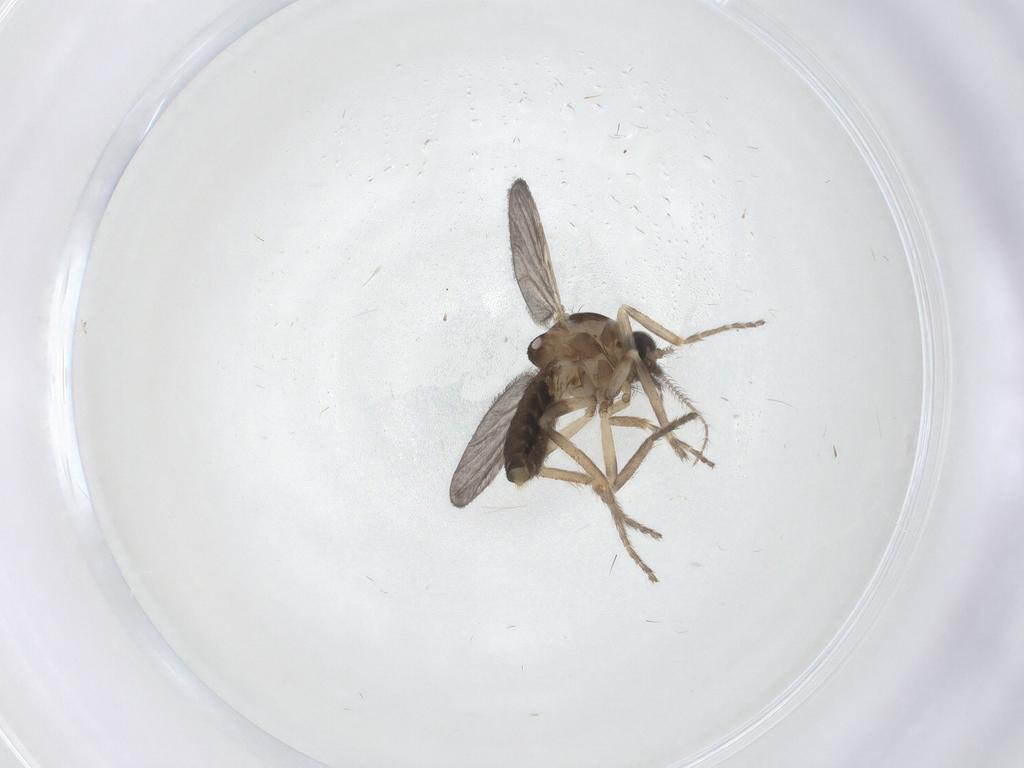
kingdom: Animalia
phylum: Arthropoda
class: Insecta
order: Diptera
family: Ceratopogonidae
